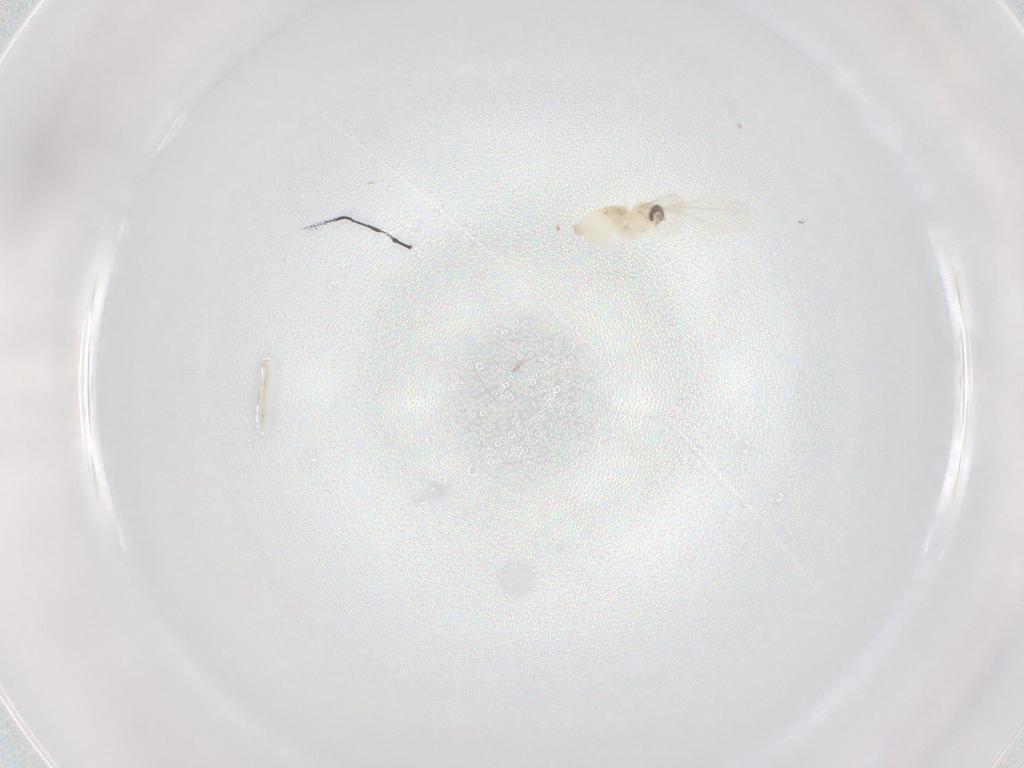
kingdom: Animalia
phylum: Arthropoda
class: Insecta
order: Diptera
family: Cecidomyiidae
